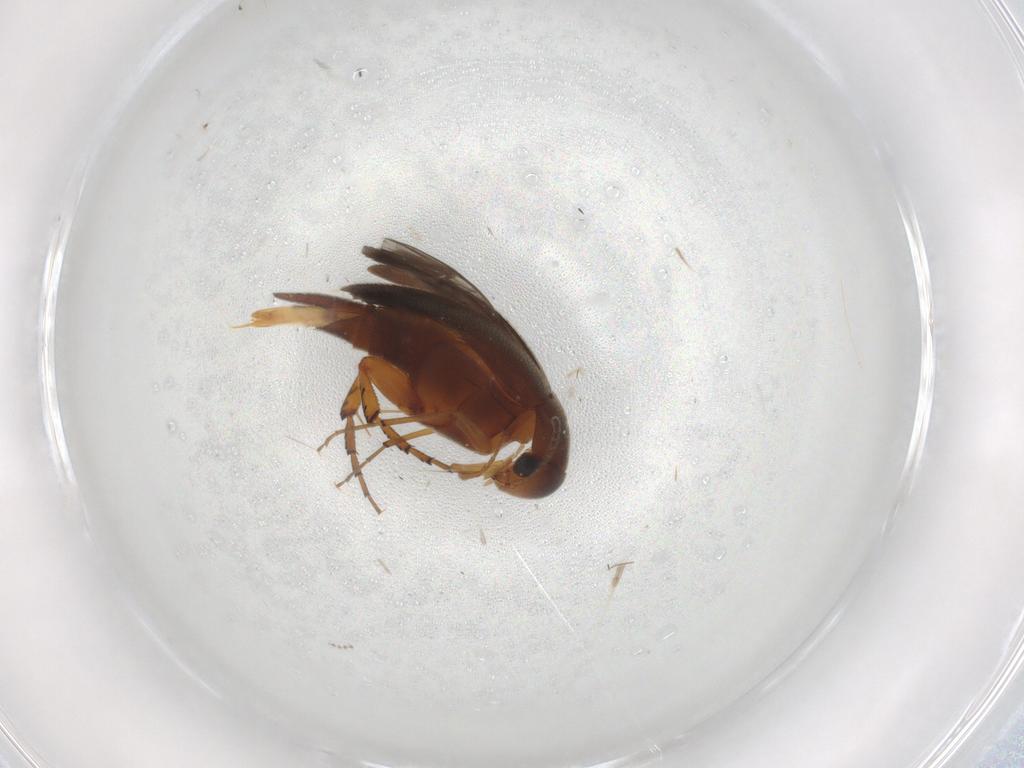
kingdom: Animalia
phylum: Arthropoda
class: Insecta
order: Coleoptera
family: Mordellidae
